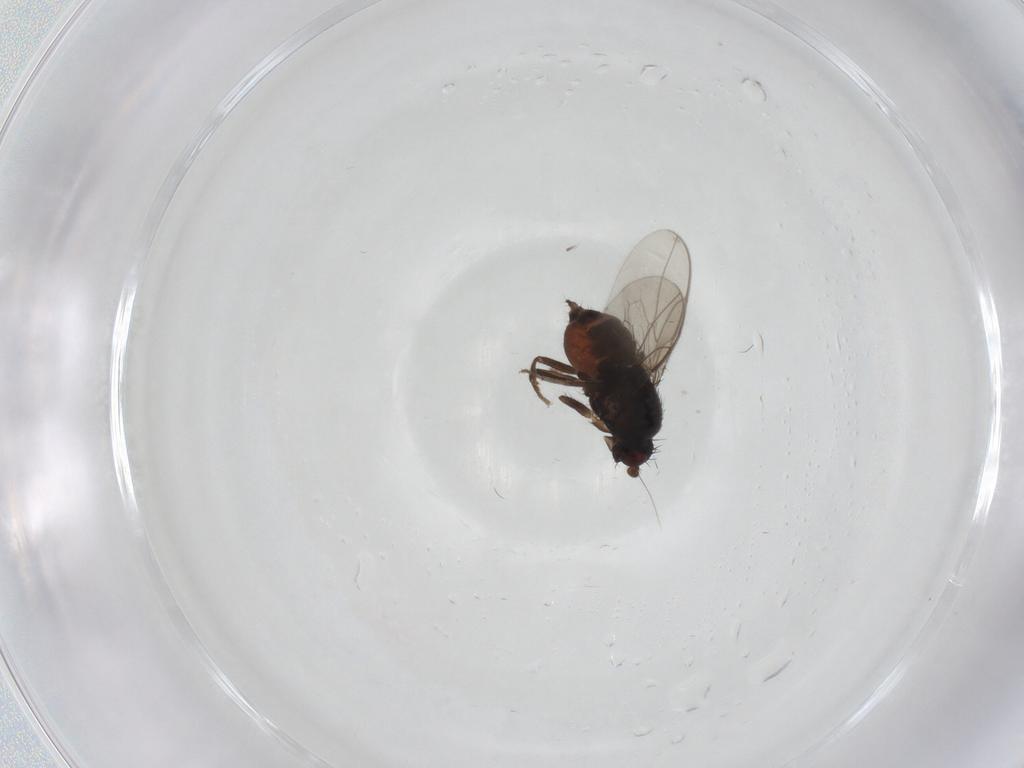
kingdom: Animalia
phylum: Arthropoda
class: Insecta
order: Diptera
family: Sphaeroceridae
